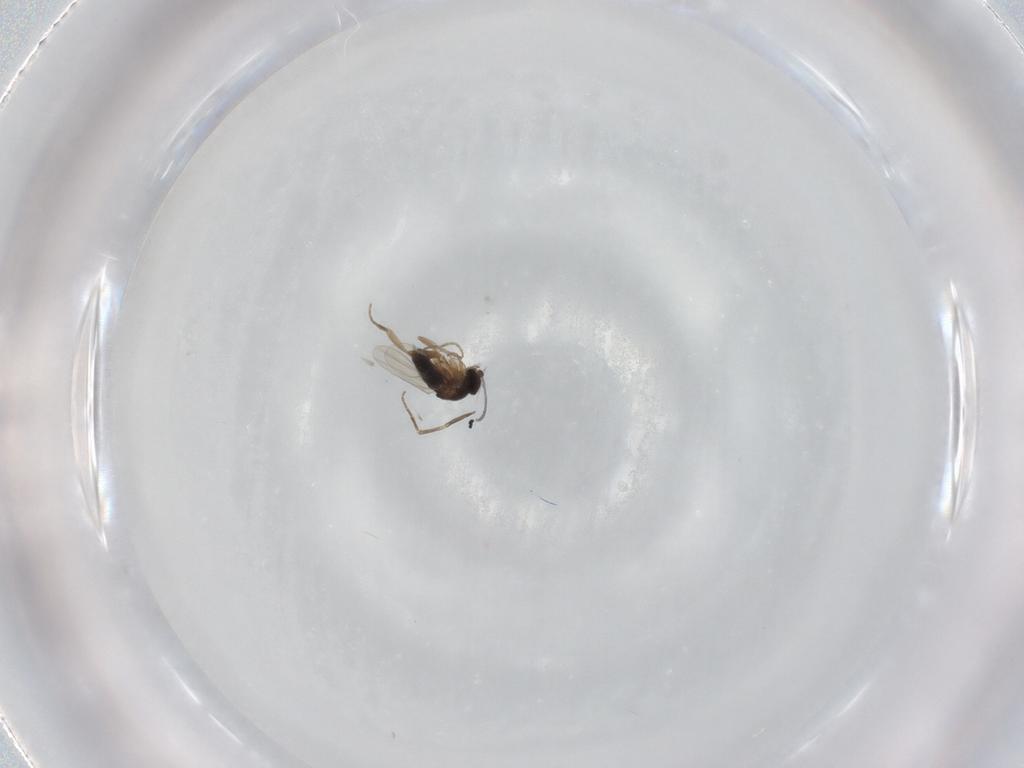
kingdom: Animalia
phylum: Arthropoda
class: Insecta
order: Diptera
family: Phoridae
